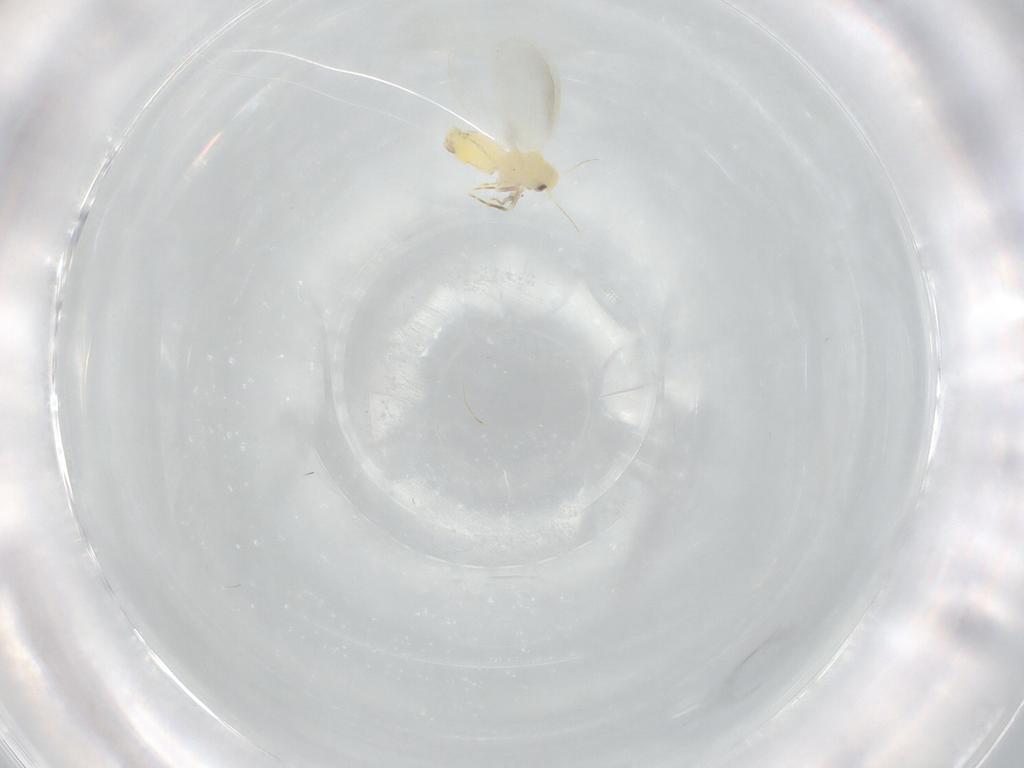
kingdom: Animalia
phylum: Arthropoda
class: Insecta
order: Hemiptera
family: Aleyrodidae
